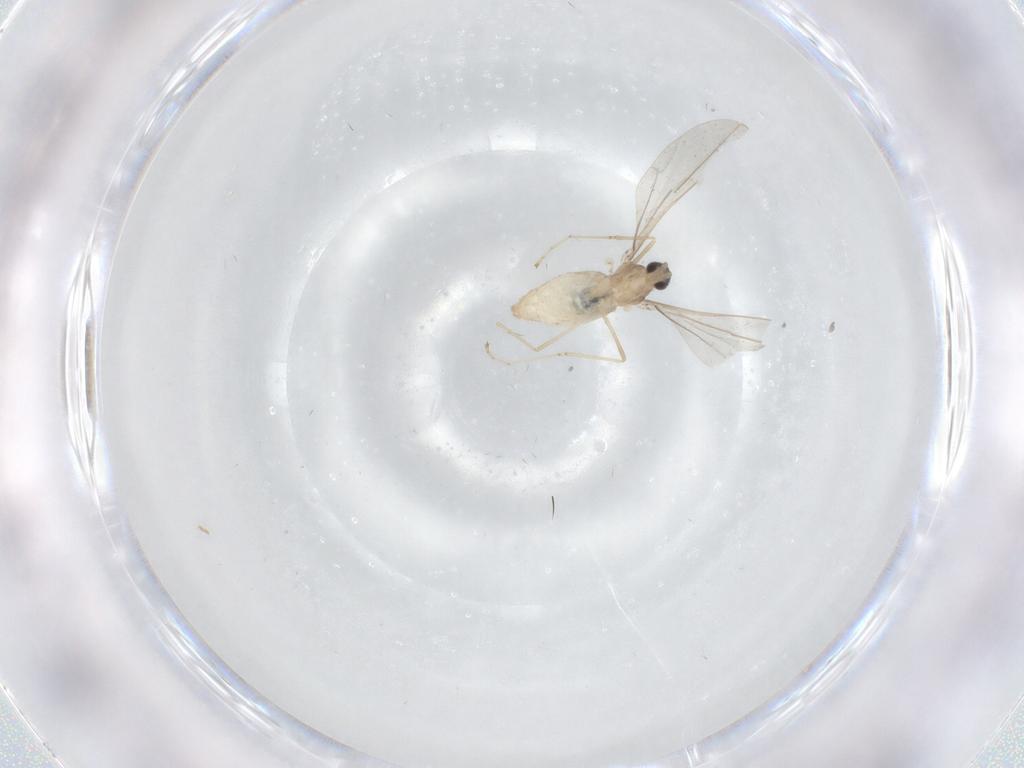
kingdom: Animalia
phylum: Arthropoda
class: Insecta
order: Diptera
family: Cecidomyiidae
